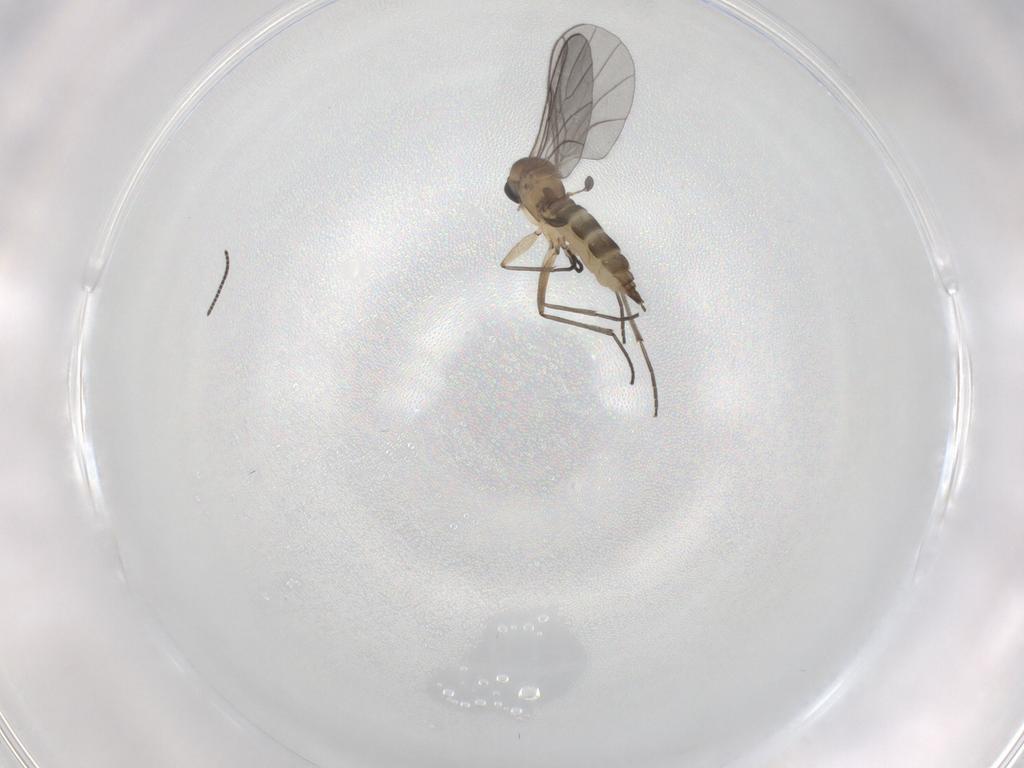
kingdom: Animalia
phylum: Arthropoda
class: Insecta
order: Diptera
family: Sciaridae
